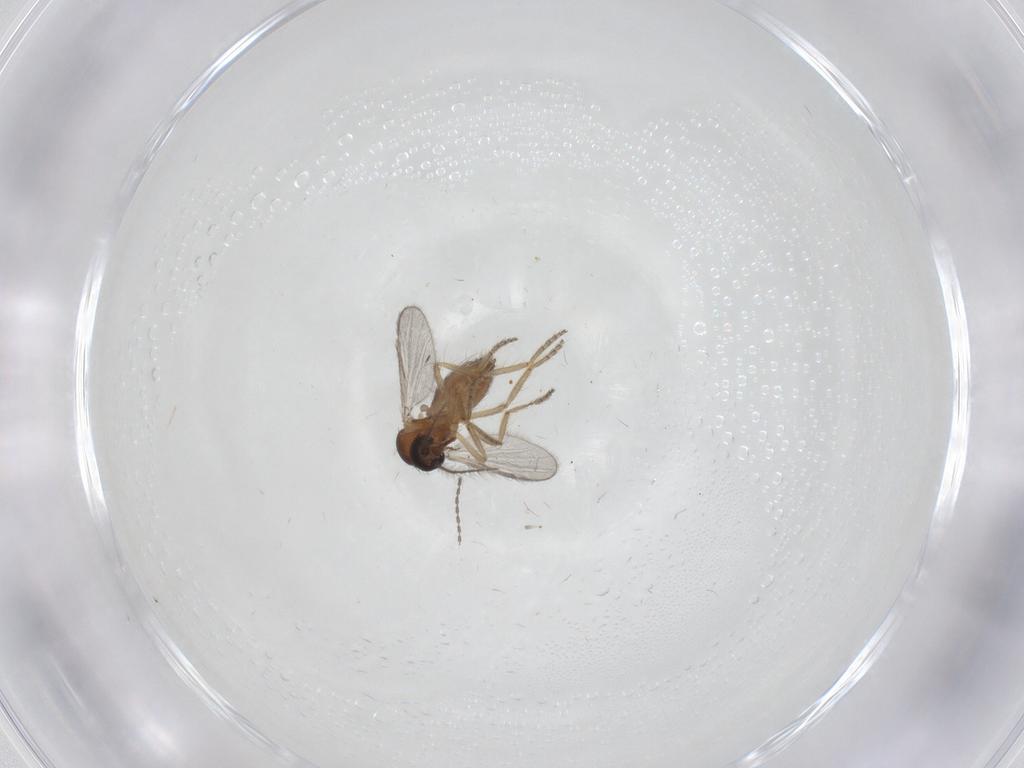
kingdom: Animalia
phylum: Arthropoda
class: Insecta
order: Diptera
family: Ceratopogonidae
